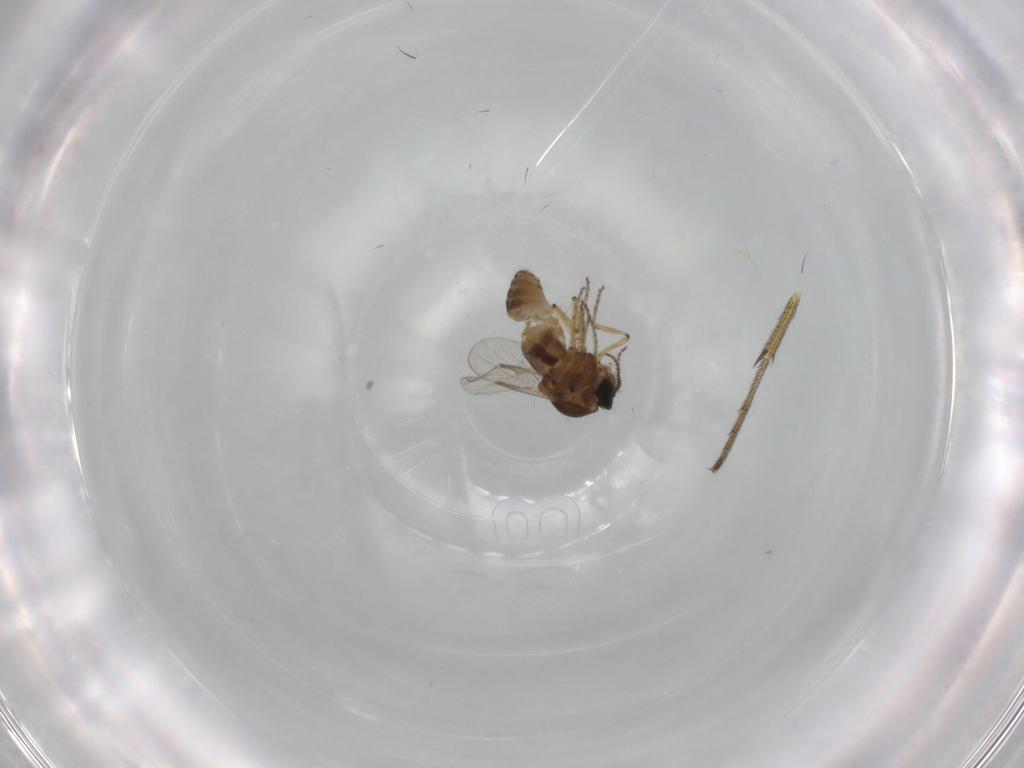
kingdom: Animalia
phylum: Arthropoda
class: Insecta
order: Diptera
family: Ceratopogonidae
